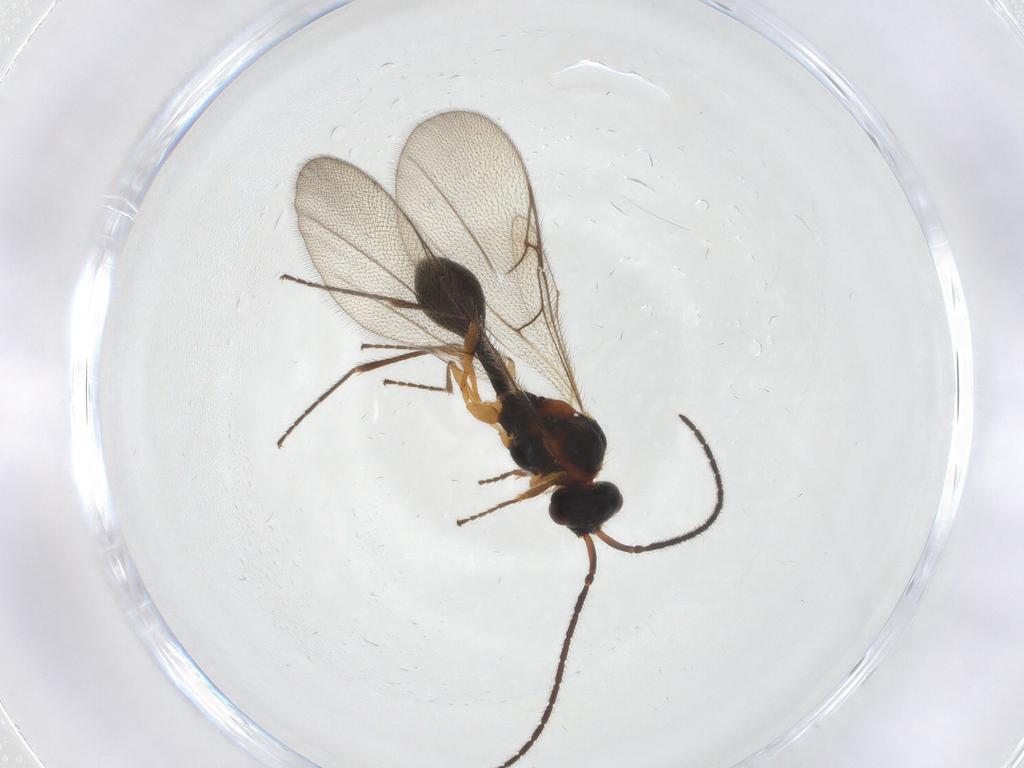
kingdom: Animalia
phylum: Arthropoda
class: Insecta
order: Hymenoptera
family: Diapriidae
